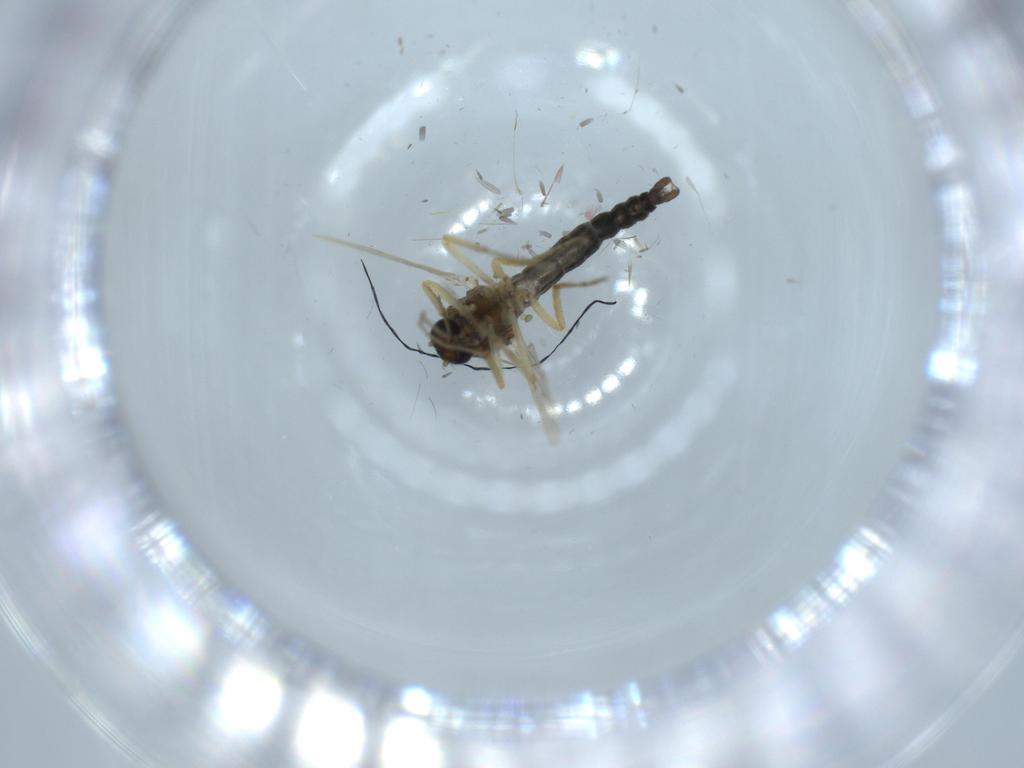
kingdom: Animalia
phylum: Arthropoda
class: Insecta
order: Diptera
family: Ceratopogonidae
